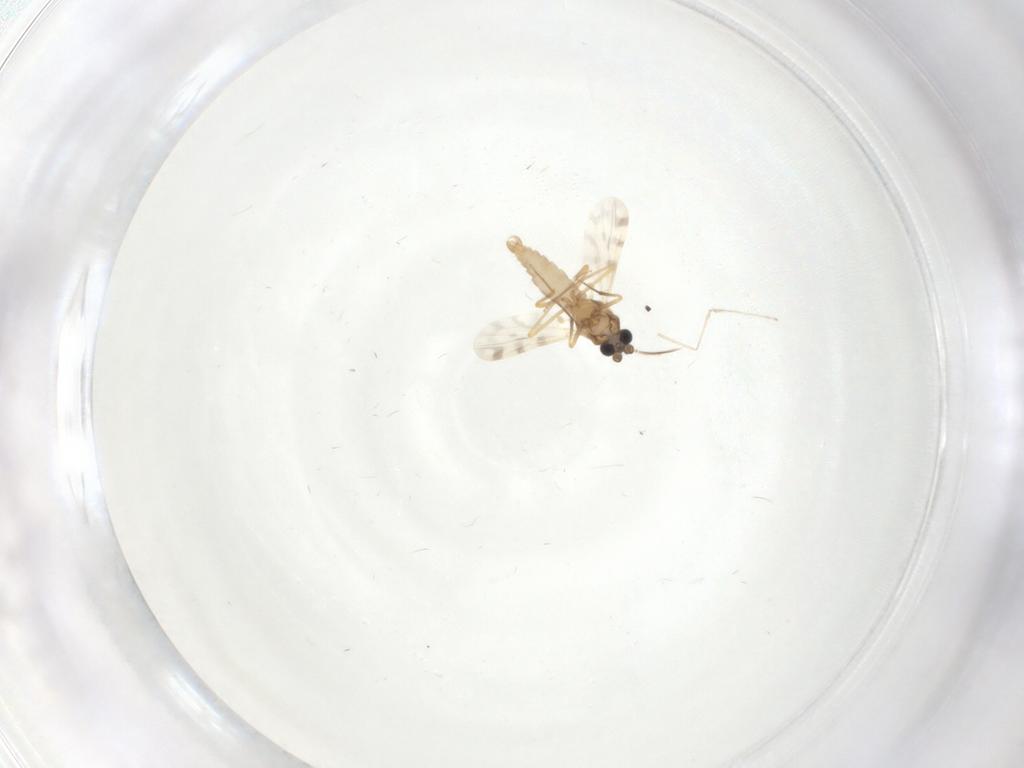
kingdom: Animalia
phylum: Arthropoda
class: Insecta
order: Diptera
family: Ceratopogonidae
